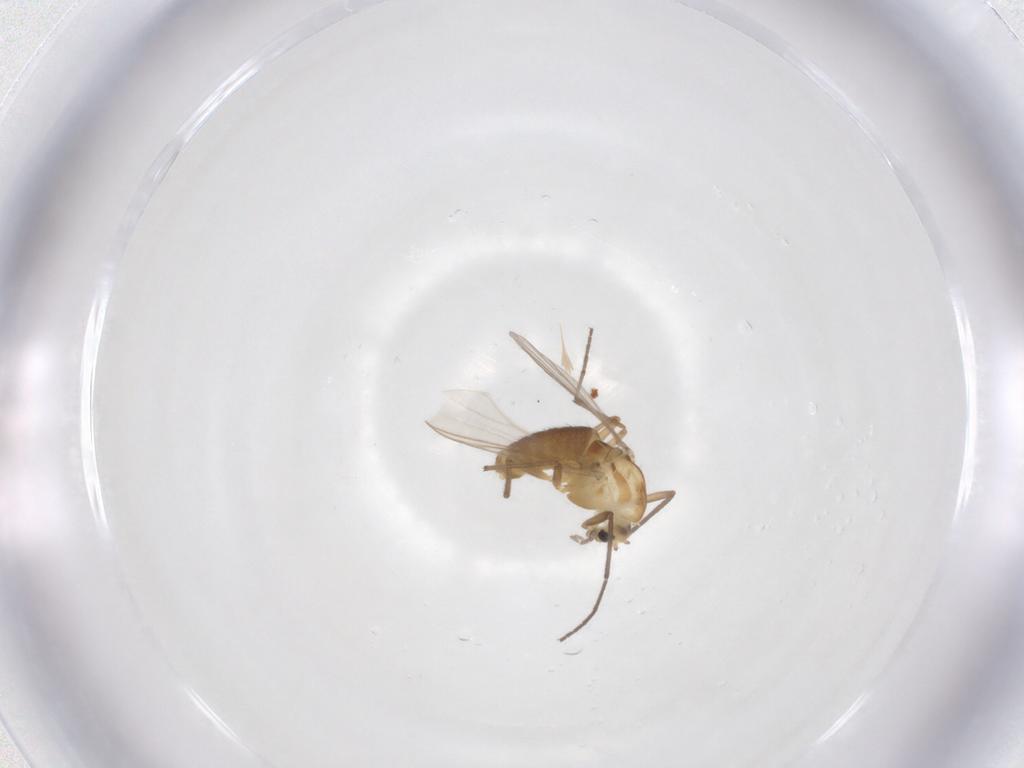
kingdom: Animalia
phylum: Arthropoda
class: Insecta
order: Diptera
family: Chironomidae
